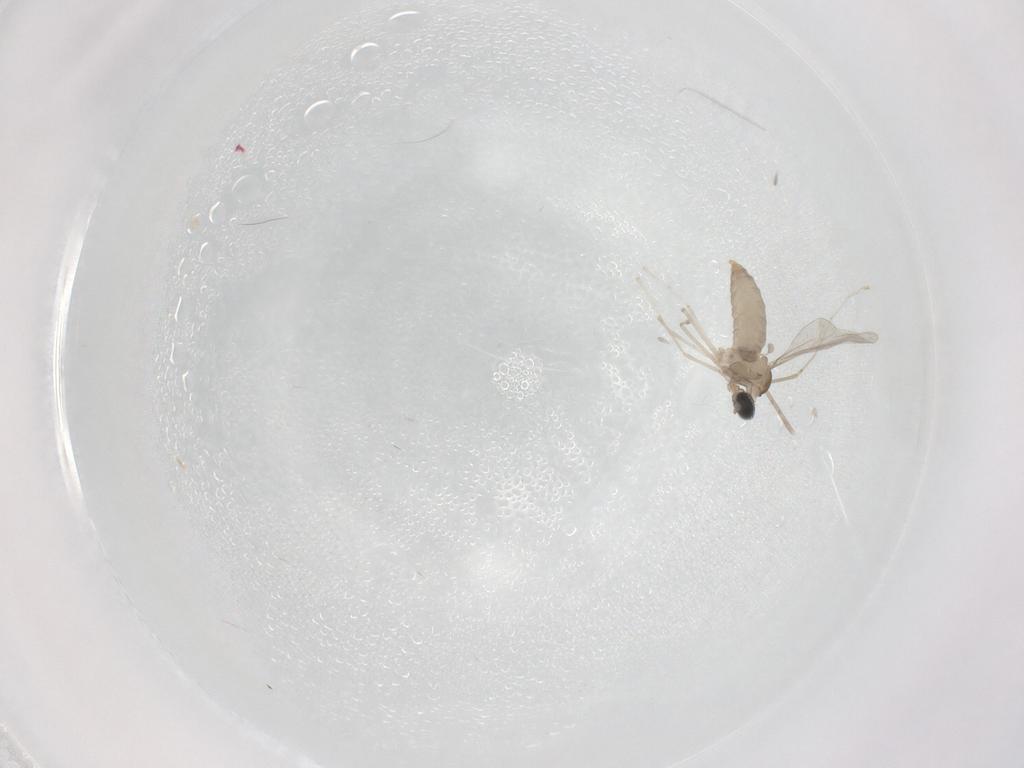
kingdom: Animalia
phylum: Arthropoda
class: Insecta
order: Diptera
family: Cecidomyiidae
